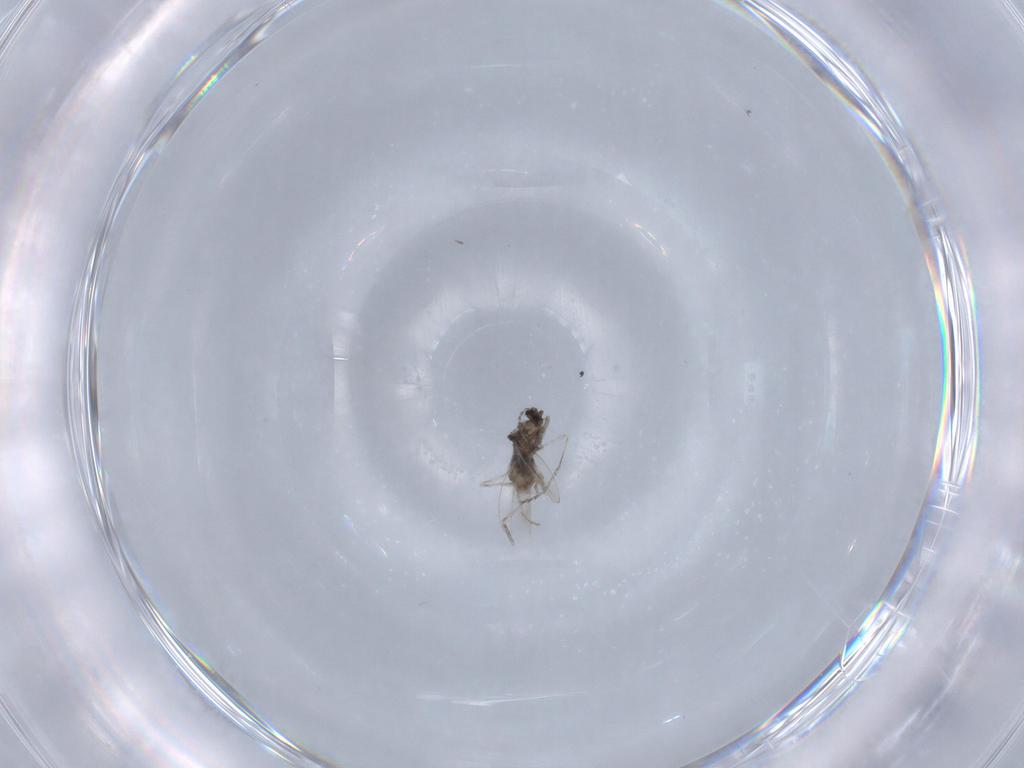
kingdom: Animalia
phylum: Arthropoda
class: Insecta
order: Diptera
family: Cecidomyiidae
